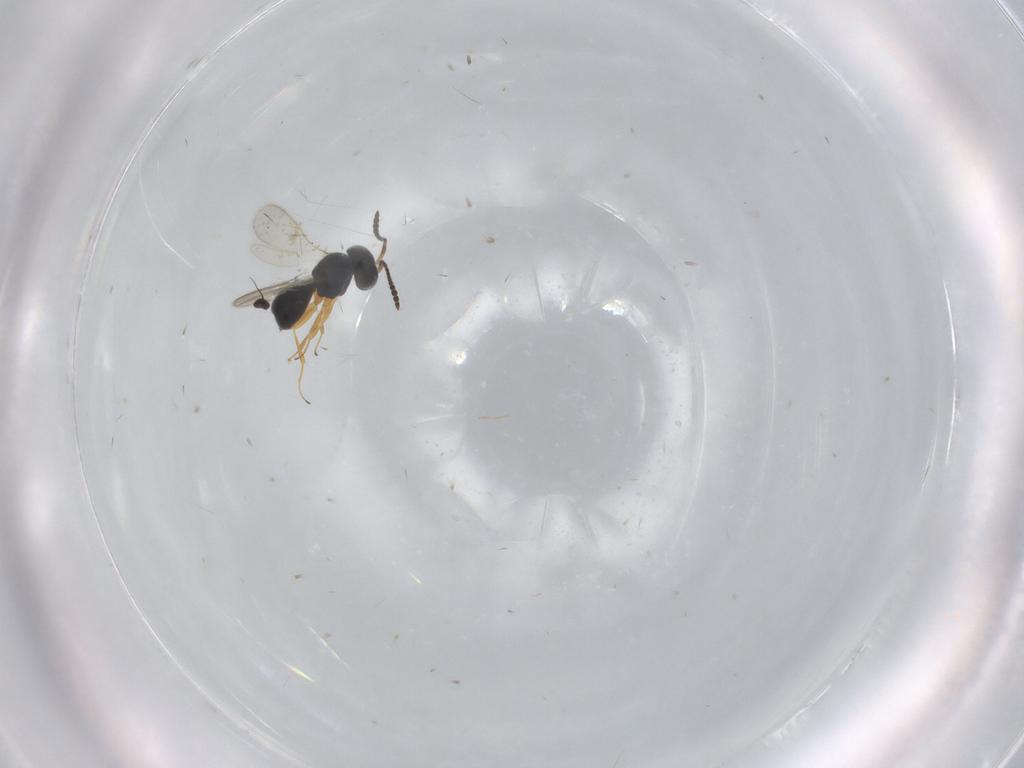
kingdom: Animalia
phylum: Arthropoda
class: Insecta
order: Hymenoptera
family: Scelionidae
